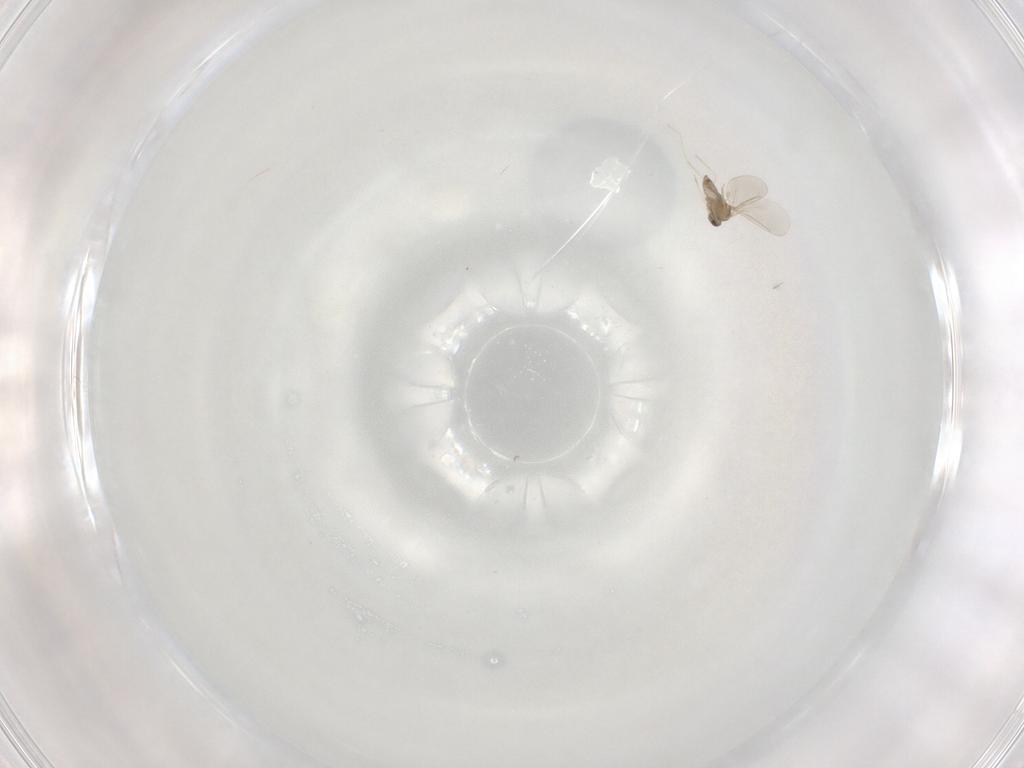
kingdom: Animalia
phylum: Arthropoda
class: Insecta
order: Diptera
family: Cecidomyiidae
